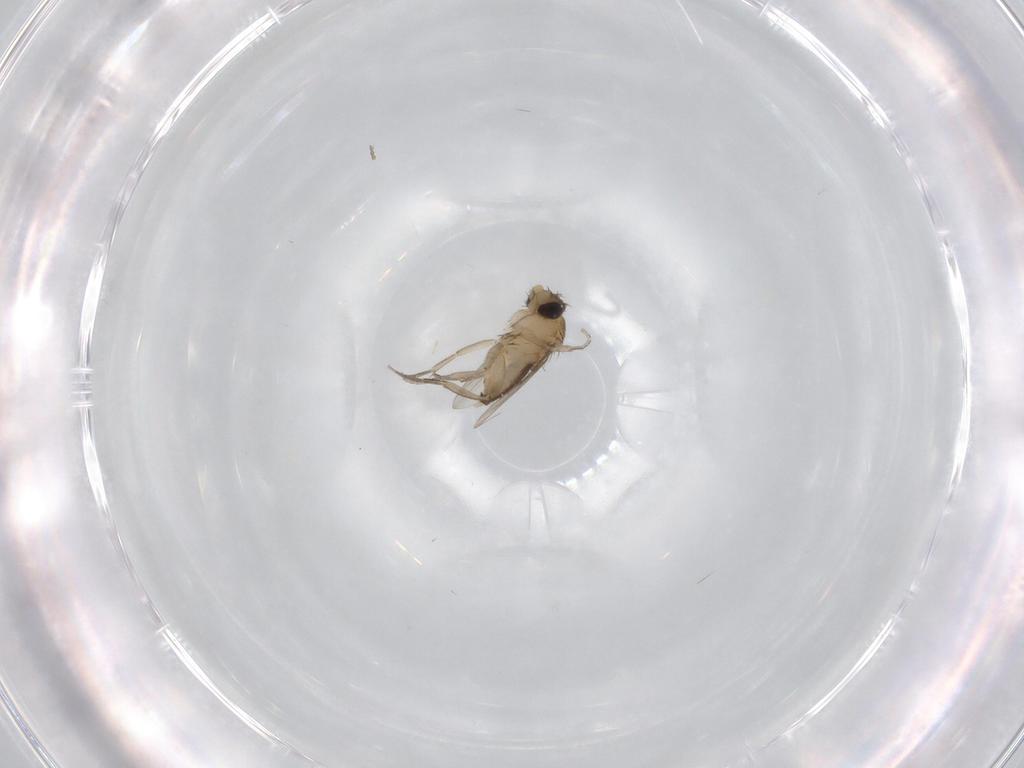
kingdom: Animalia
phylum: Arthropoda
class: Insecta
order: Diptera
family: Phoridae
